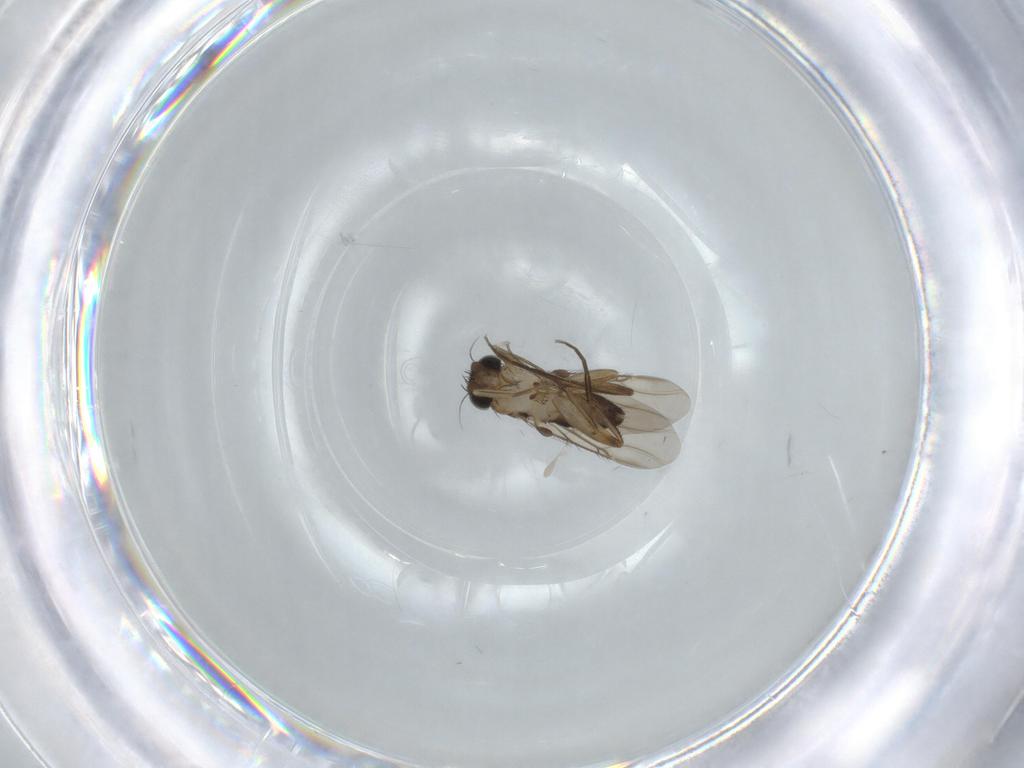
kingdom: Animalia
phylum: Arthropoda
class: Insecta
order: Diptera
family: Phoridae
